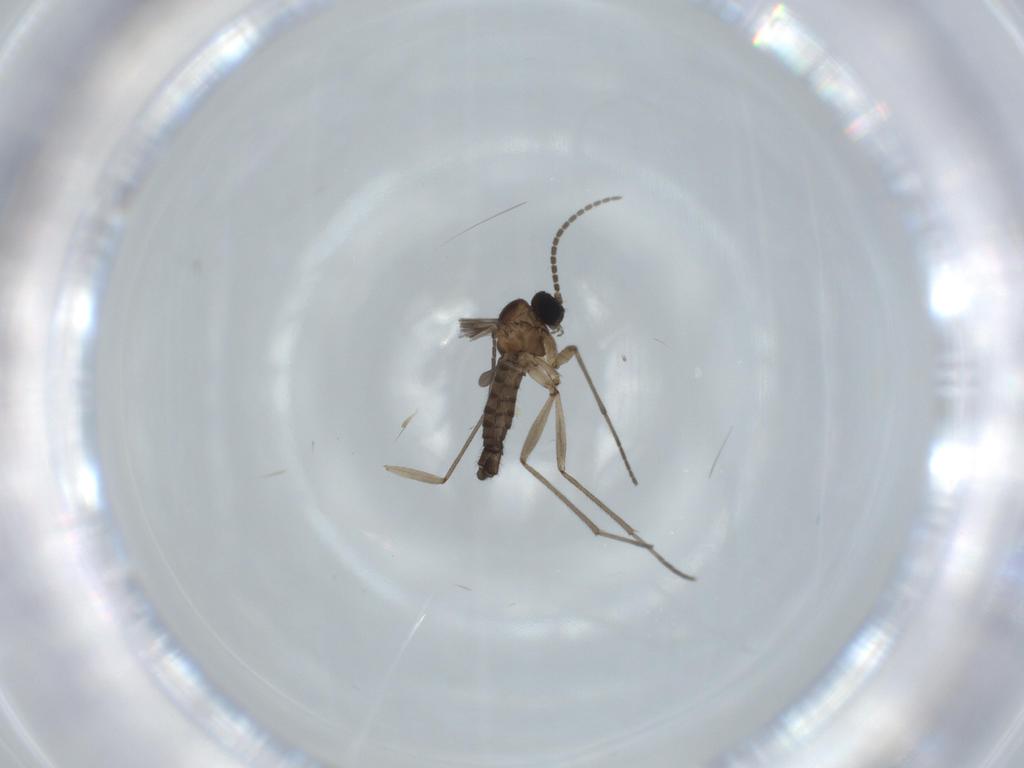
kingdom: Animalia
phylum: Arthropoda
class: Insecta
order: Diptera
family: Sciaridae
